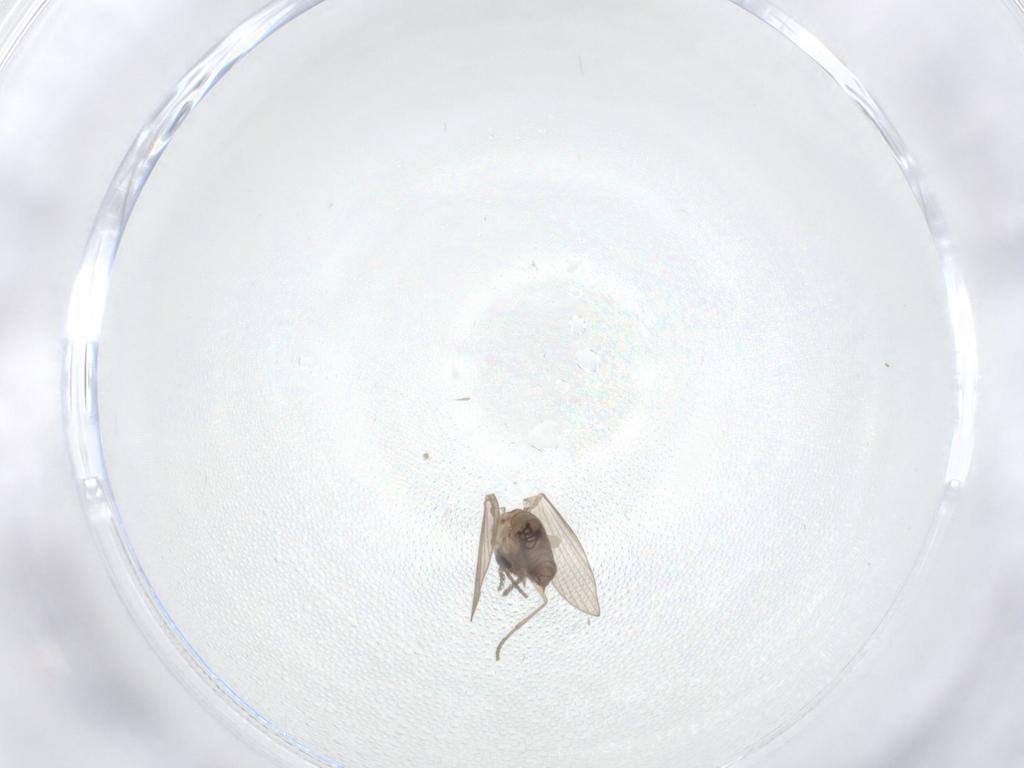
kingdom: Animalia
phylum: Arthropoda
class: Insecta
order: Diptera
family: Psychodidae
